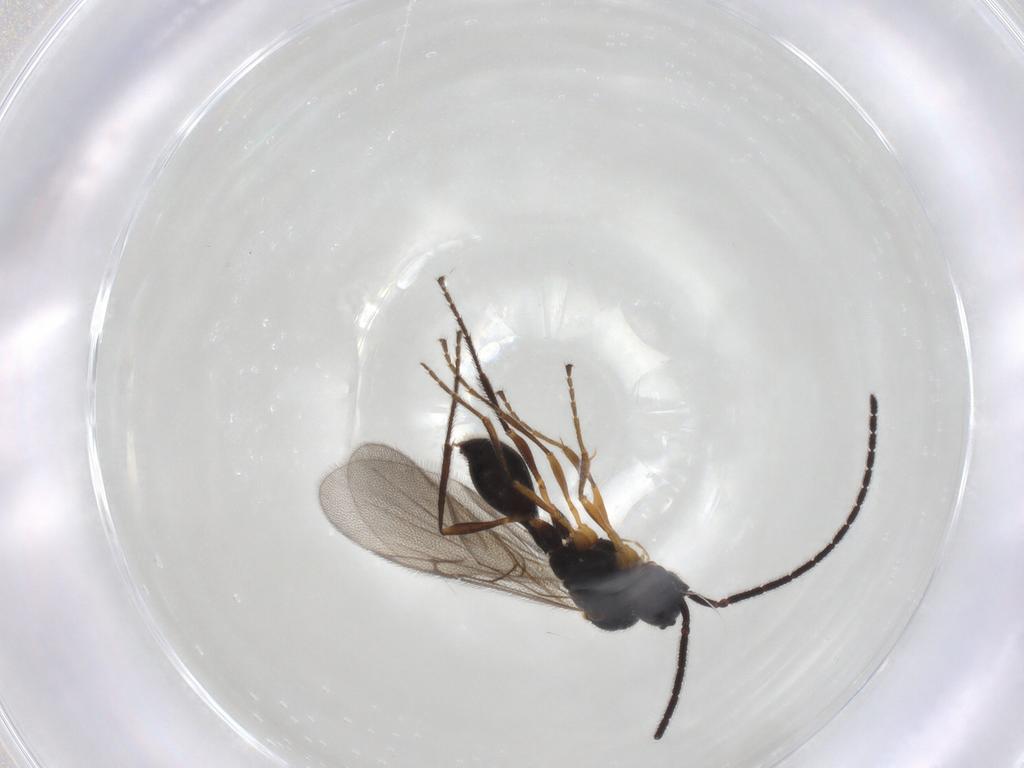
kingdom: Animalia
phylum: Arthropoda
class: Insecta
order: Hymenoptera
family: Diapriidae
